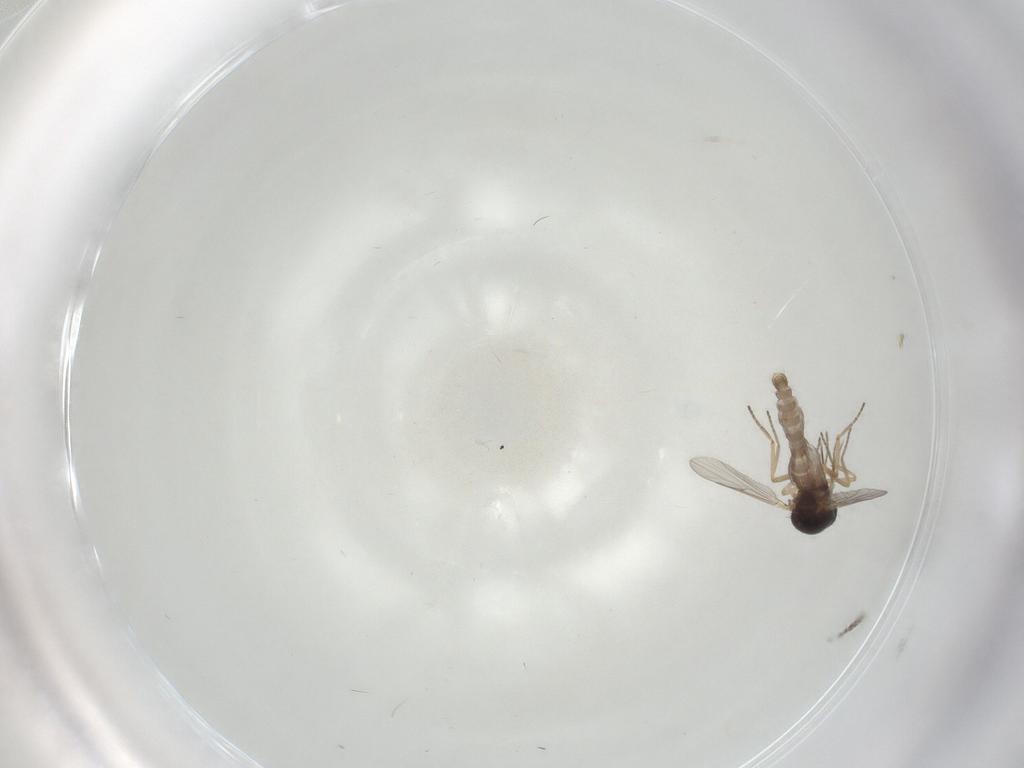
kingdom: Animalia
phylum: Arthropoda
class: Insecta
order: Diptera
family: Ceratopogonidae
